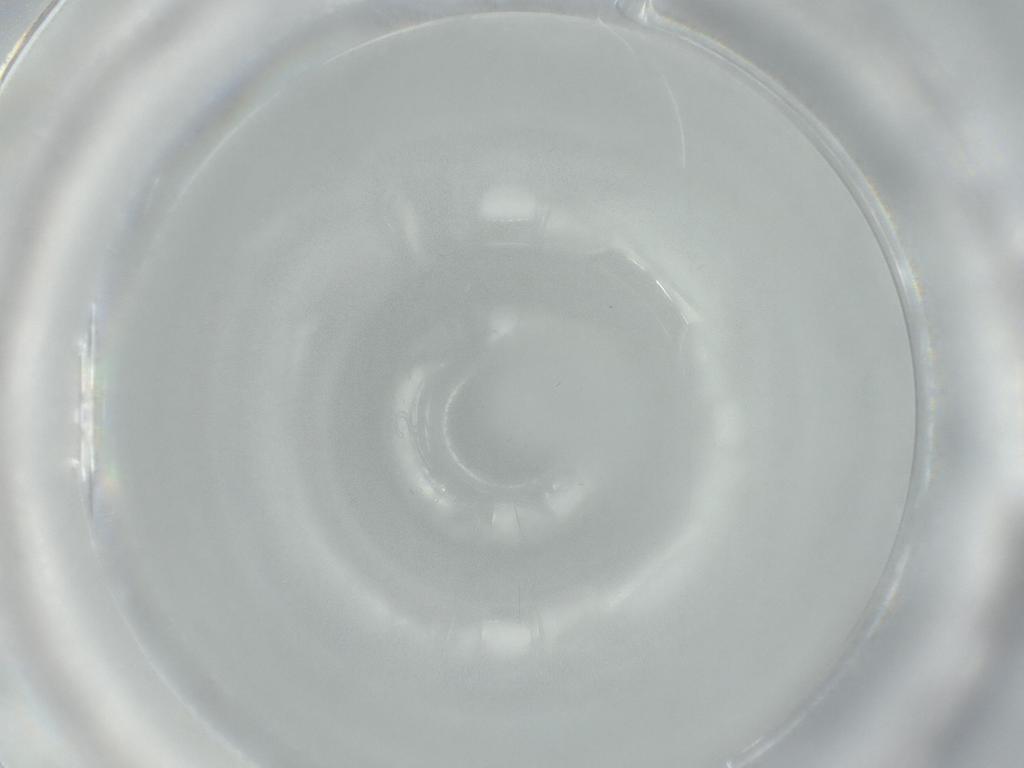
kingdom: Animalia
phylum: Arthropoda
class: Insecta
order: Hymenoptera
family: Scelionidae
